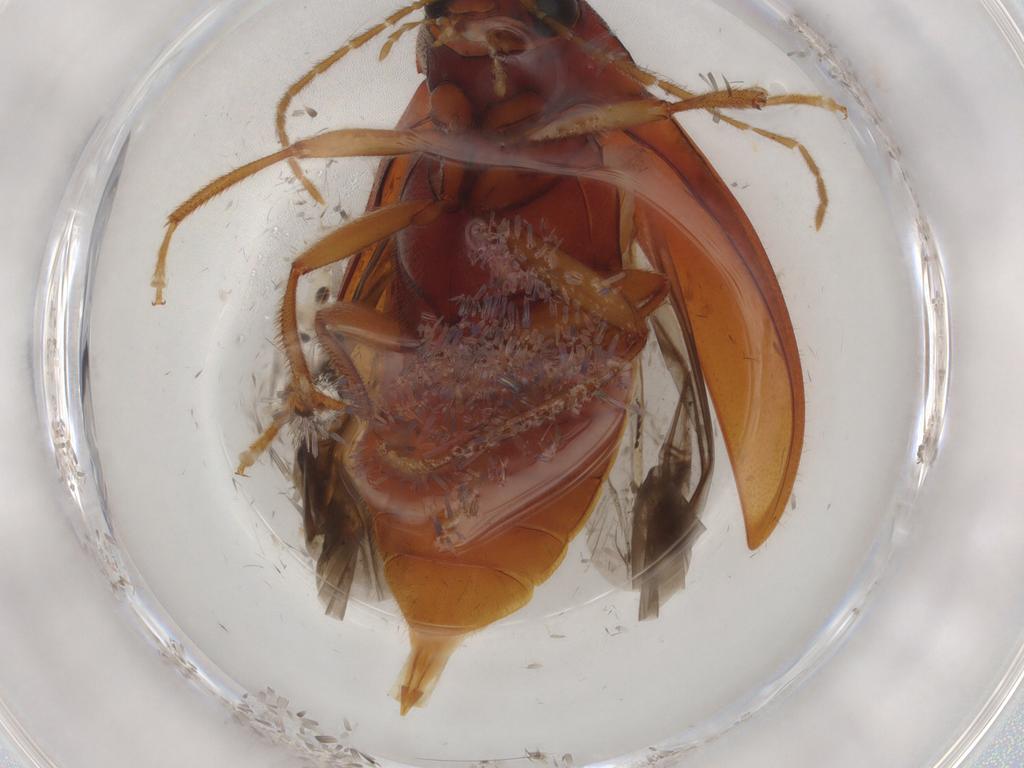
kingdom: Animalia
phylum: Arthropoda
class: Insecta
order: Coleoptera
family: Ptilodactylidae
